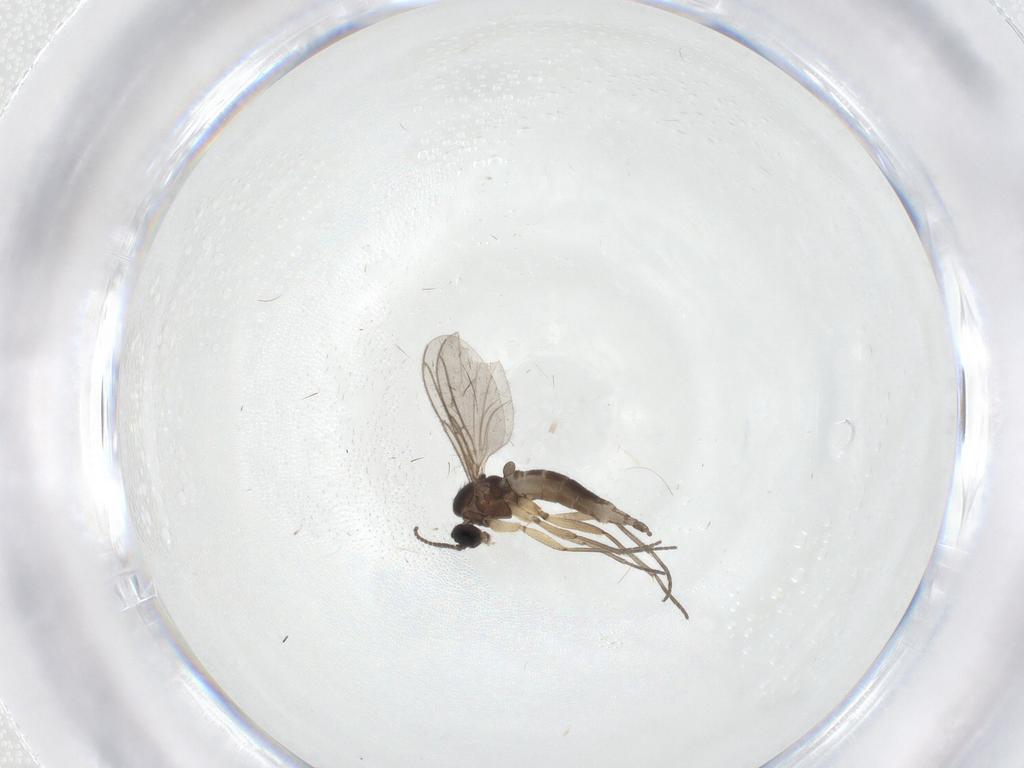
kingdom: Animalia
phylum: Arthropoda
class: Insecta
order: Diptera
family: Sciaridae
